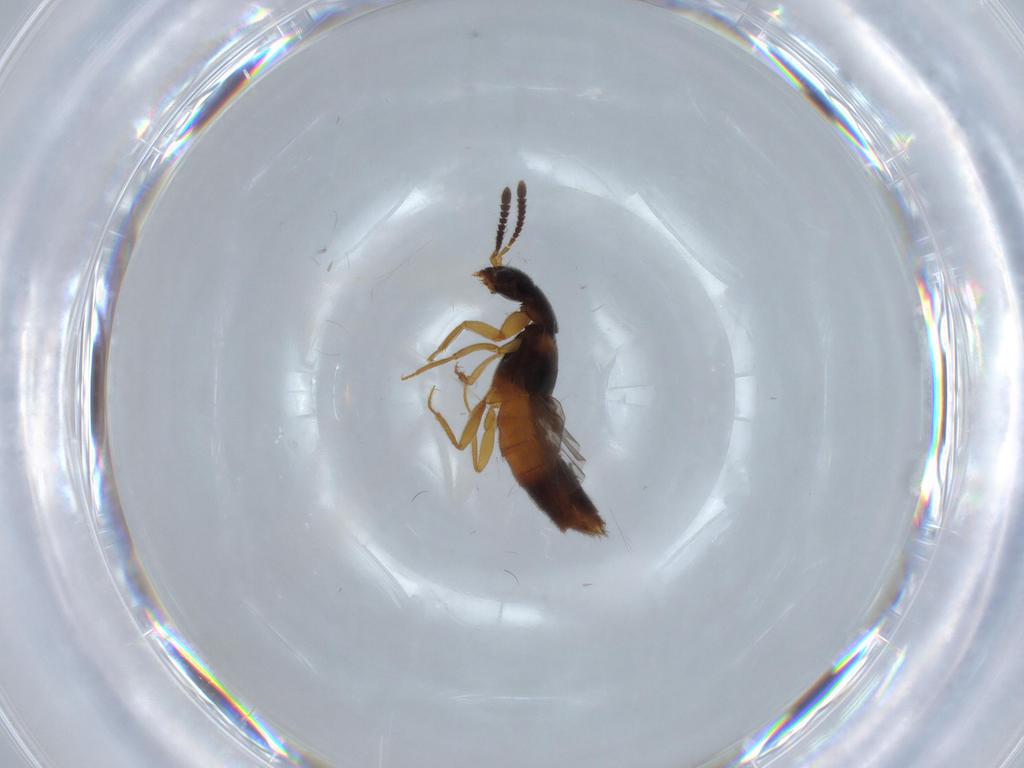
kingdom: Animalia
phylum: Arthropoda
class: Insecta
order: Coleoptera
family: Staphylinidae
